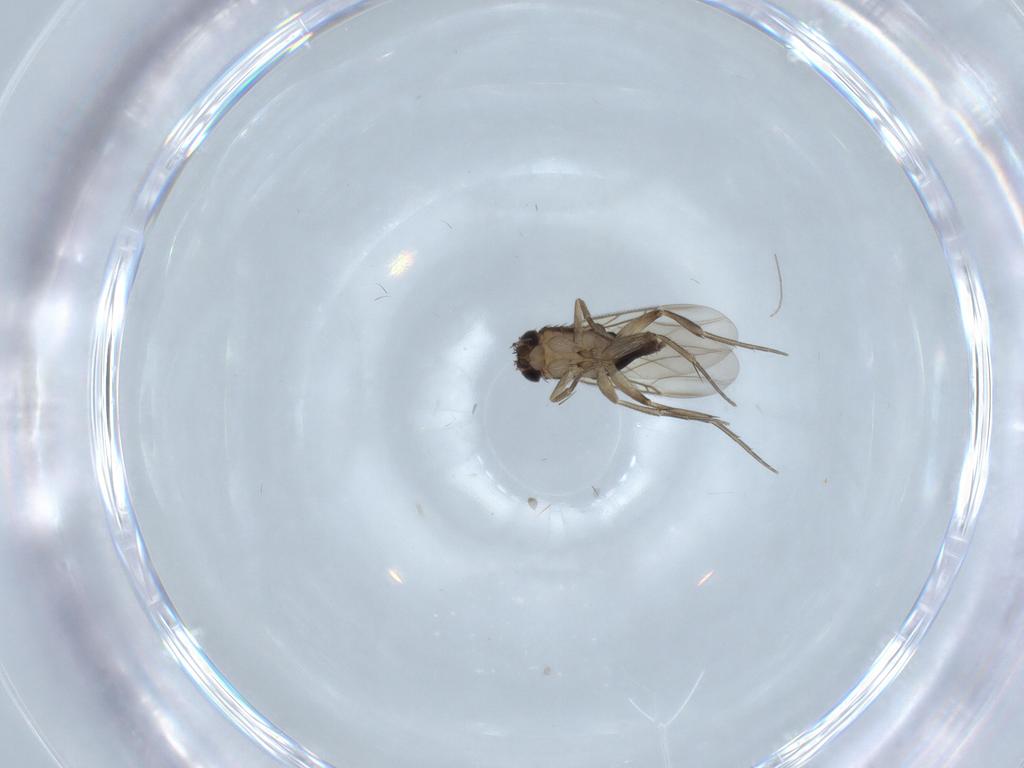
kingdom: Animalia
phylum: Arthropoda
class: Insecta
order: Diptera
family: Phoridae
